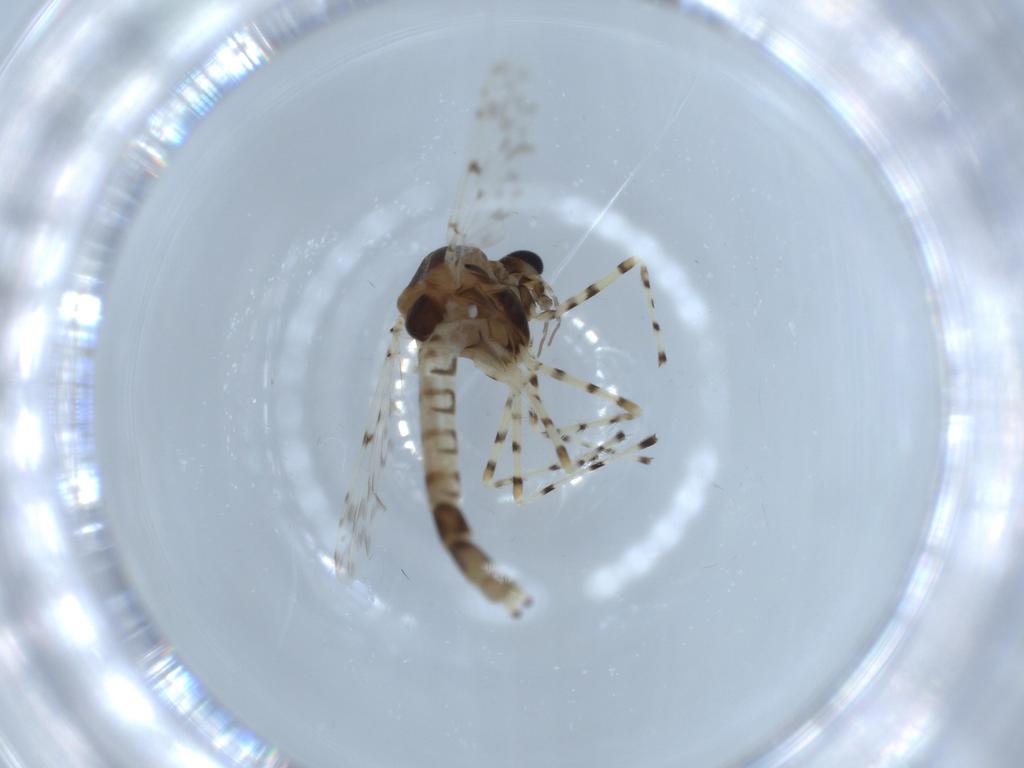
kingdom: Animalia
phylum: Arthropoda
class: Insecta
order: Diptera
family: Chironomidae
